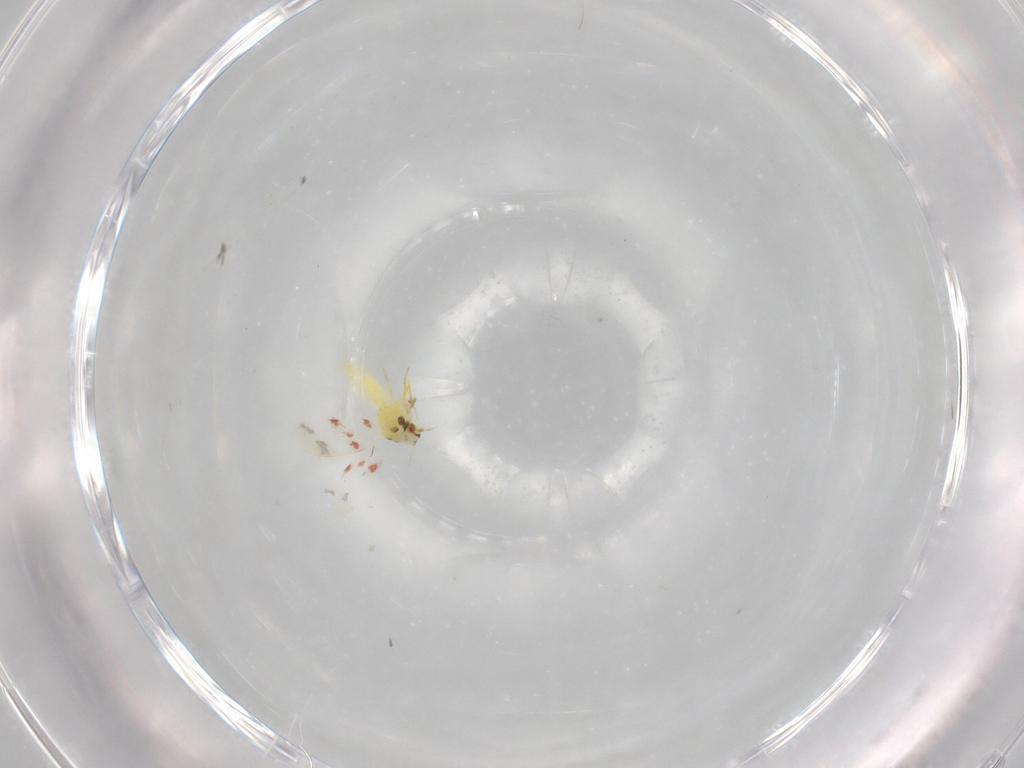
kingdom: Animalia
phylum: Arthropoda
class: Insecta
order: Hemiptera
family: Aleyrodidae
